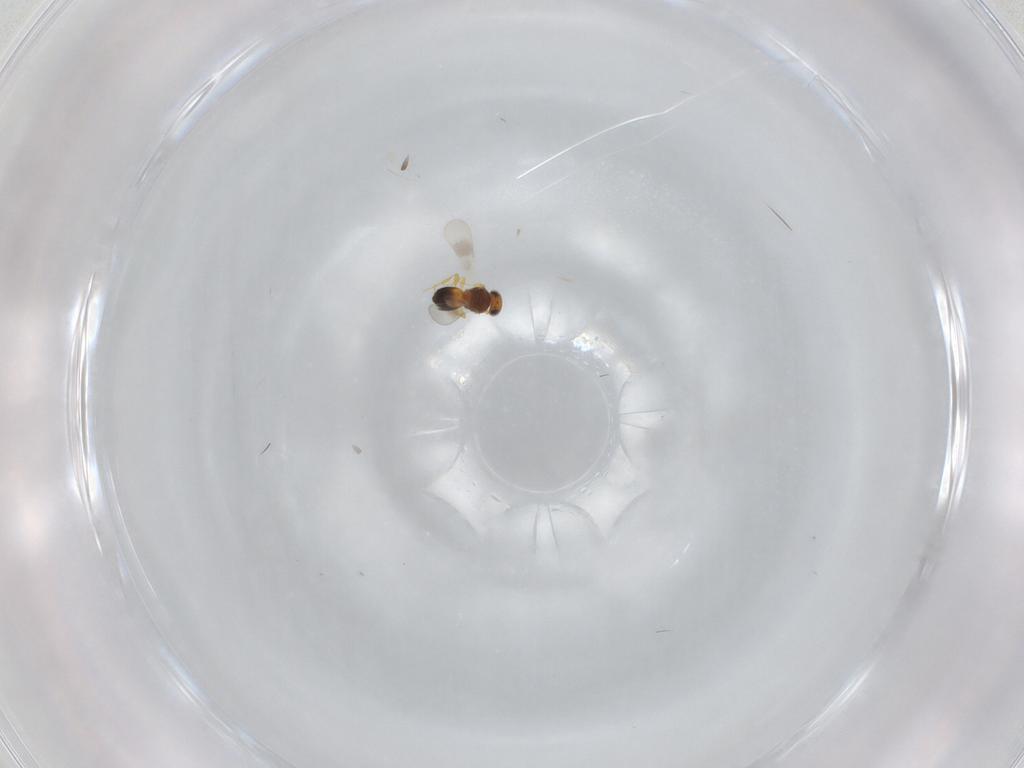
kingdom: Animalia
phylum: Arthropoda
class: Insecta
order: Hymenoptera
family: Platygastridae
